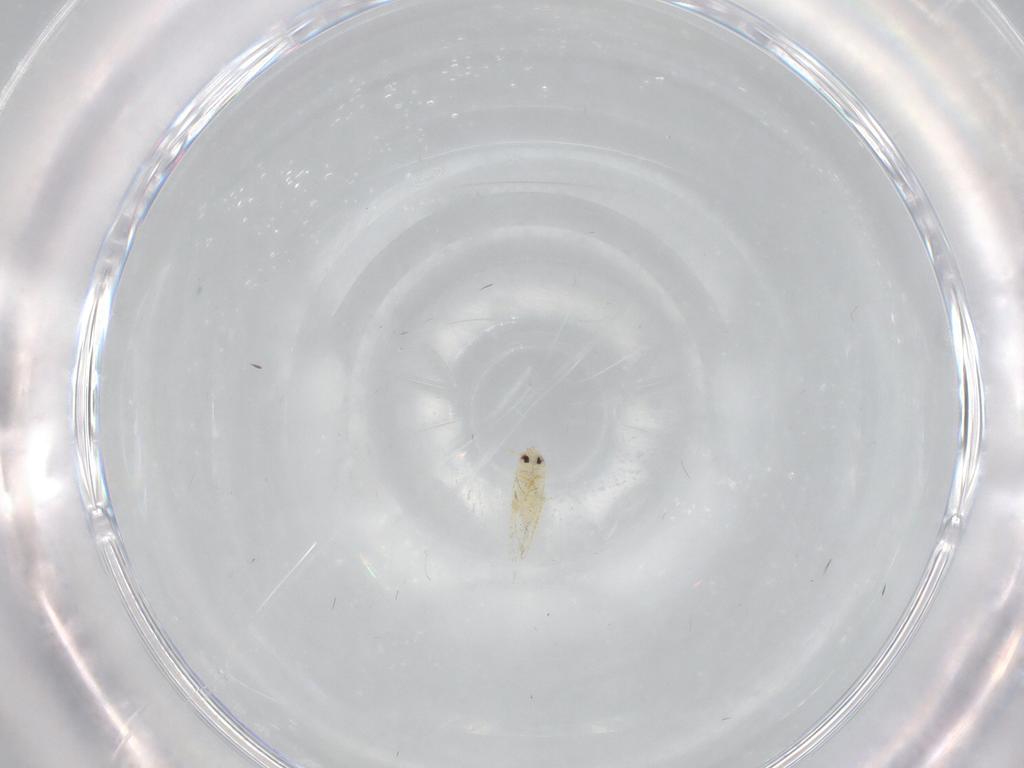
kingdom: Animalia
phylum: Arthropoda
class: Insecta
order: Hemiptera
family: Aleyrodidae
